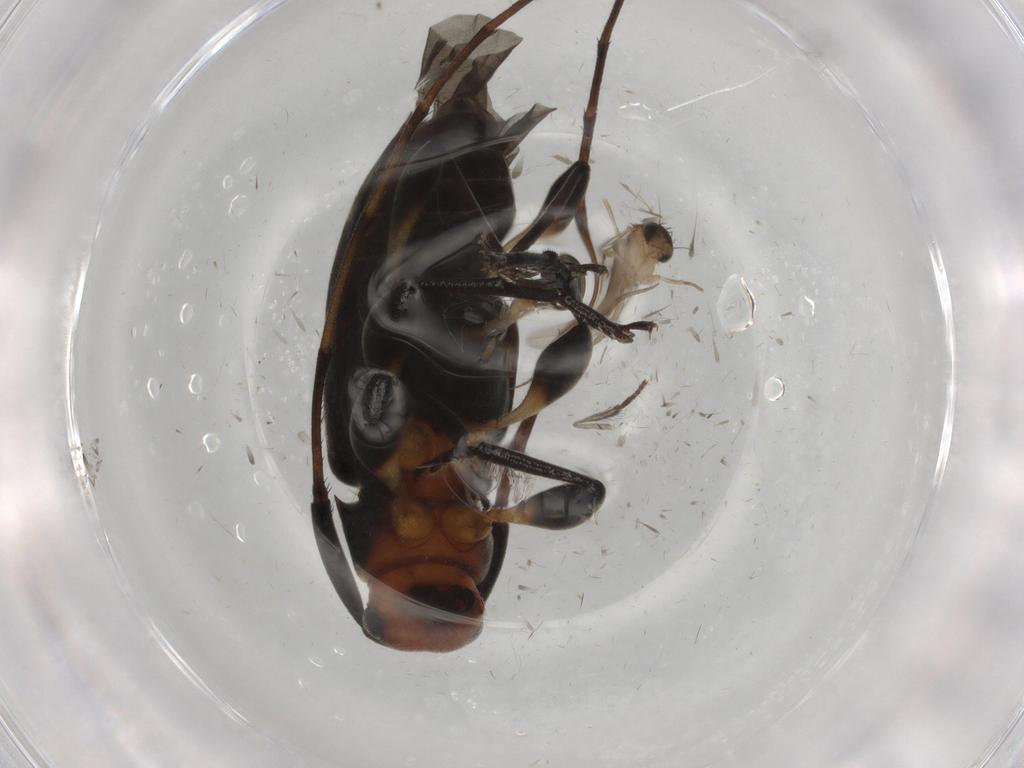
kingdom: Animalia
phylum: Arthropoda
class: Insecta
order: Coleoptera
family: Cerambycidae
